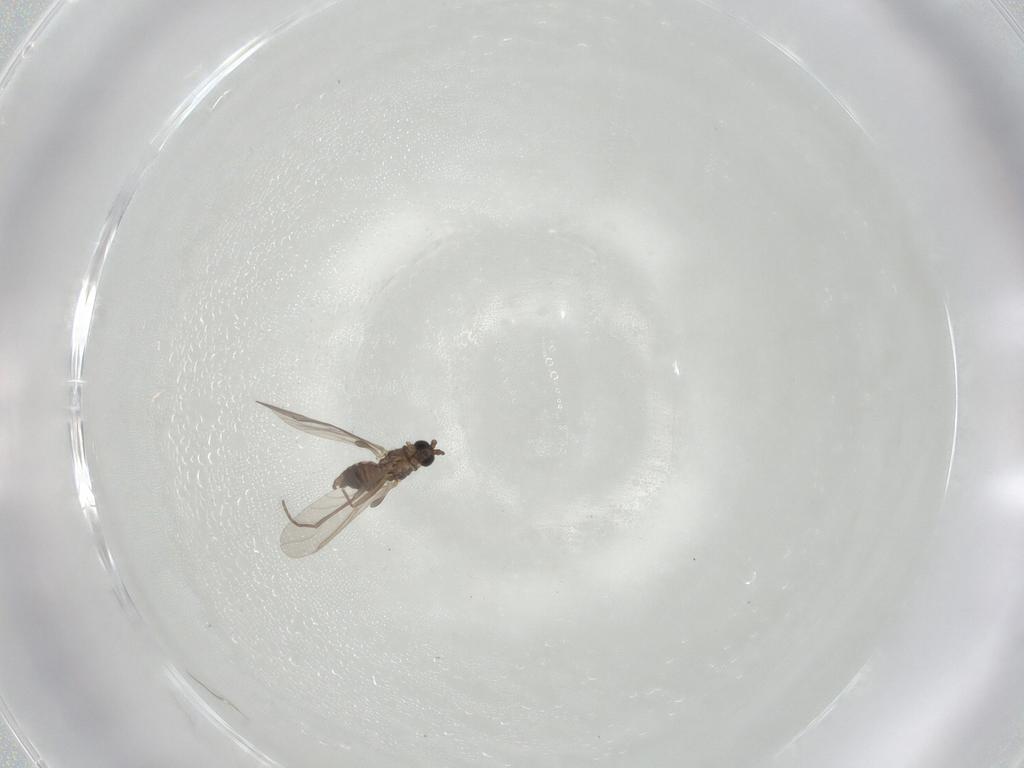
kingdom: Animalia
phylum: Arthropoda
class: Insecta
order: Diptera
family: Sciaridae
